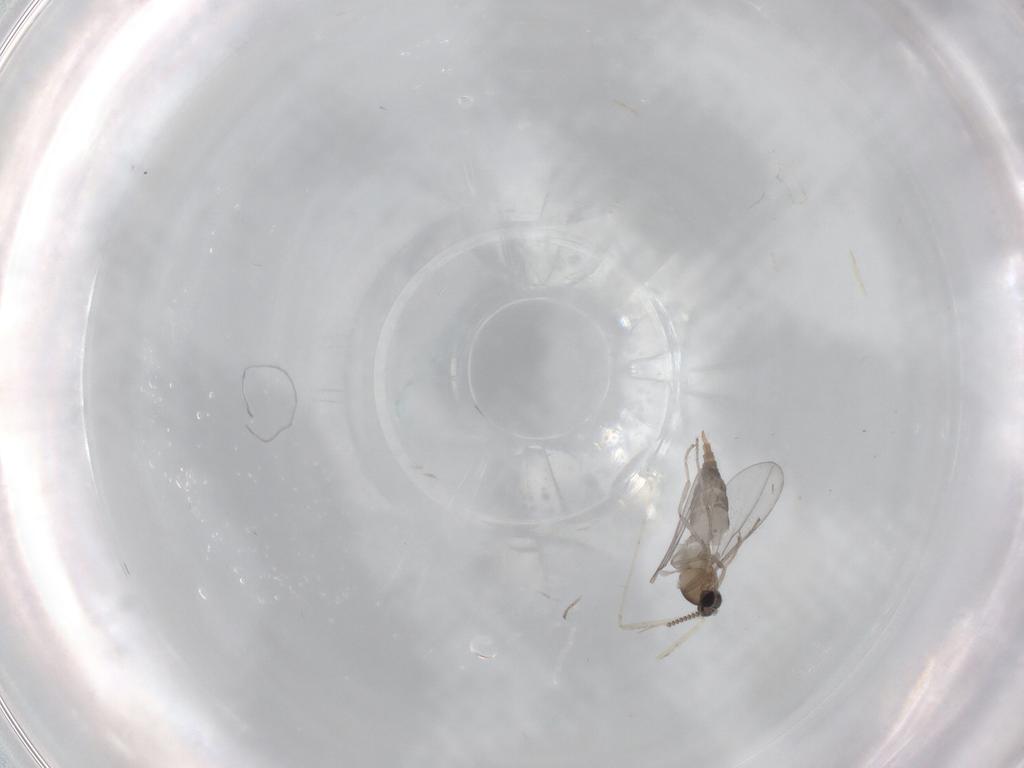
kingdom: Animalia
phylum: Arthropoda
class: Insecta
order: Diptera
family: Cecidomyiidae
